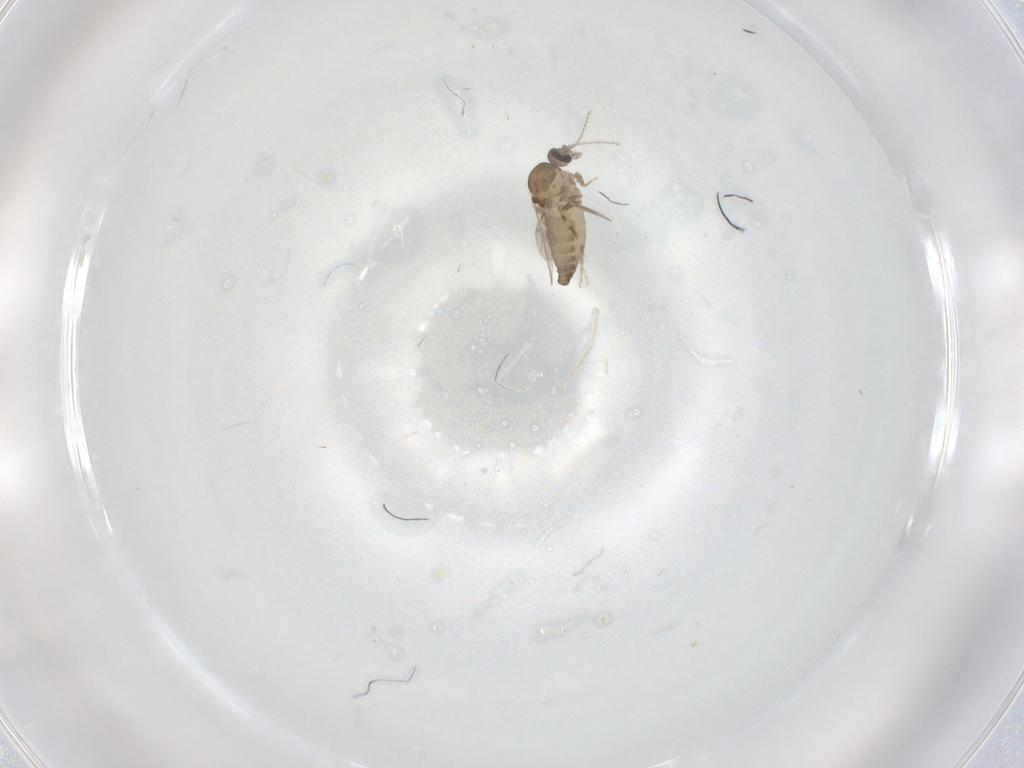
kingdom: Animalia
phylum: Arthropoda
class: Insecta
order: Diptera
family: Ceratopogonidae
